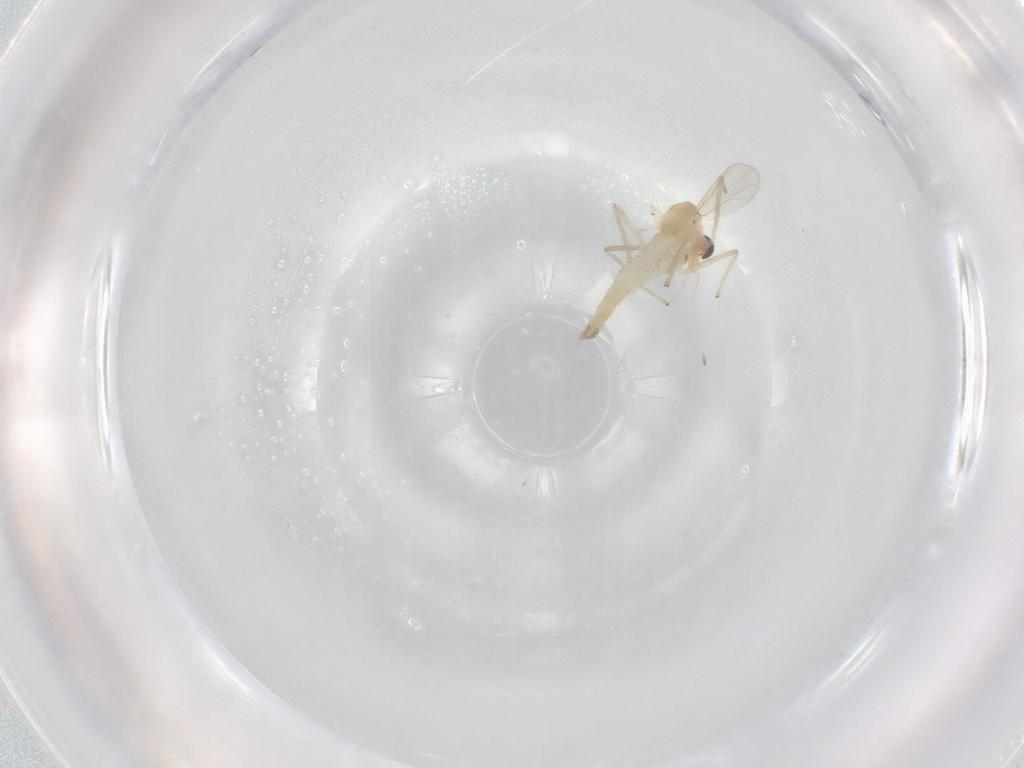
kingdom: Animalia
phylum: Arthropoda
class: Insecta
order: Diptera
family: Chironomidae
